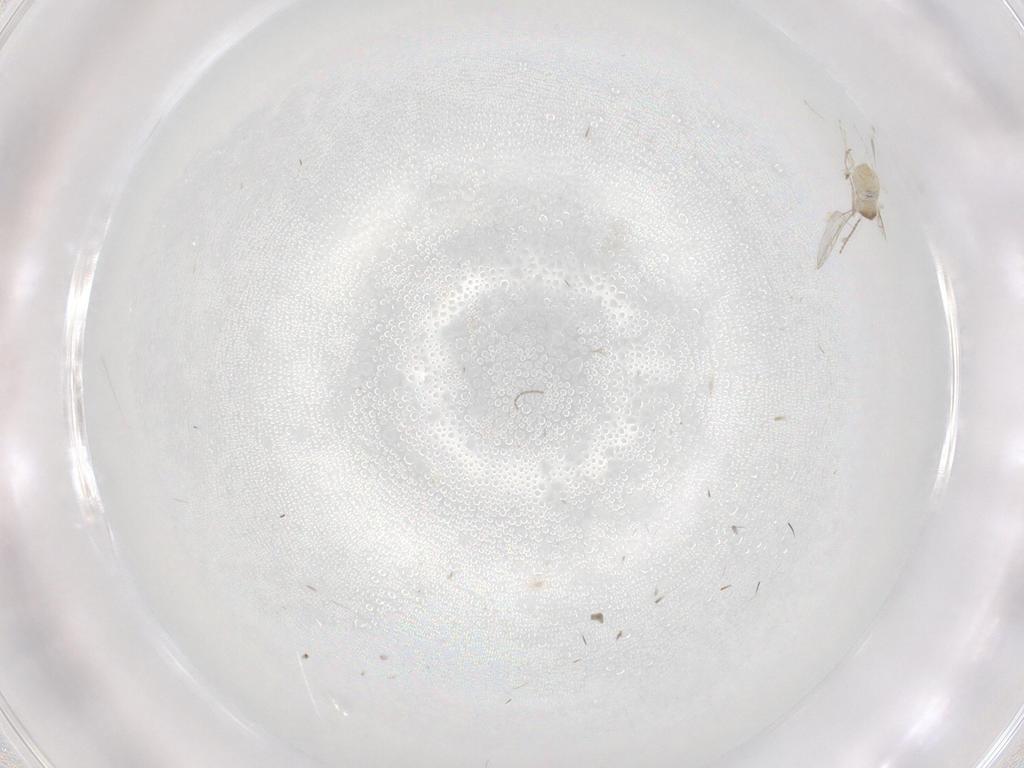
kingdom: Animalia
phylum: Arthropoda
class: Insecta
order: Diptera
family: Cecidomyiidae
